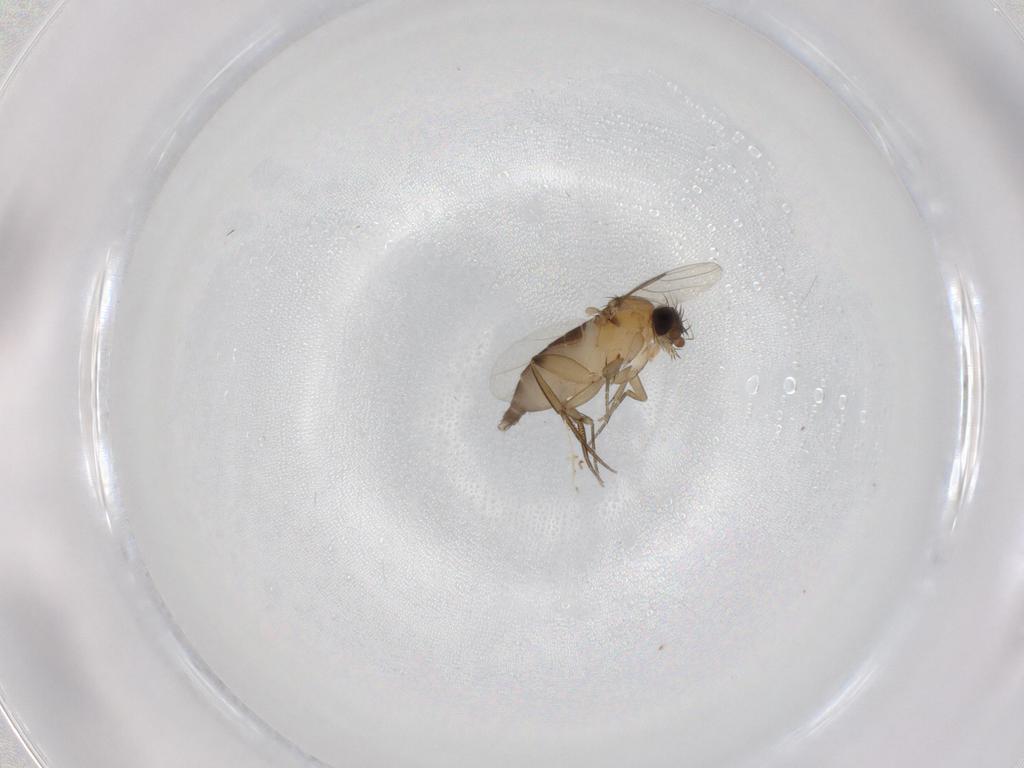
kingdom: Animalia
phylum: Arthropoda
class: Insecta
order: Diptera
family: Phoridae
